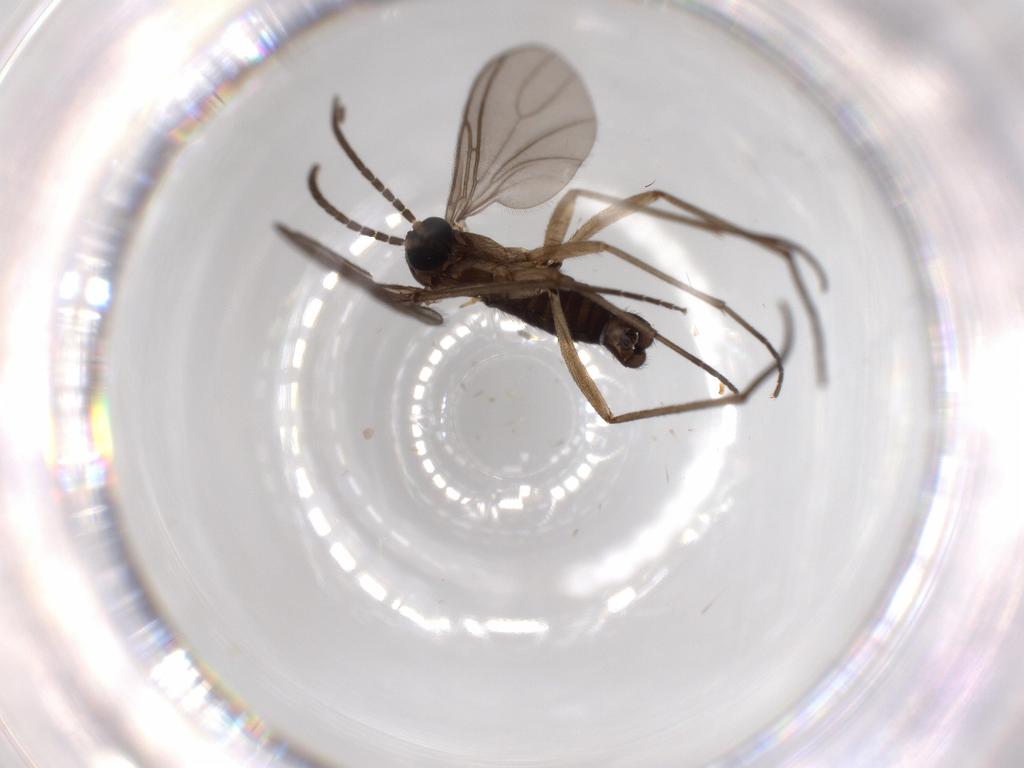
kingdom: Animalia
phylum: Arthropoda
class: Insecta
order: Diptera
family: Sciaridae
